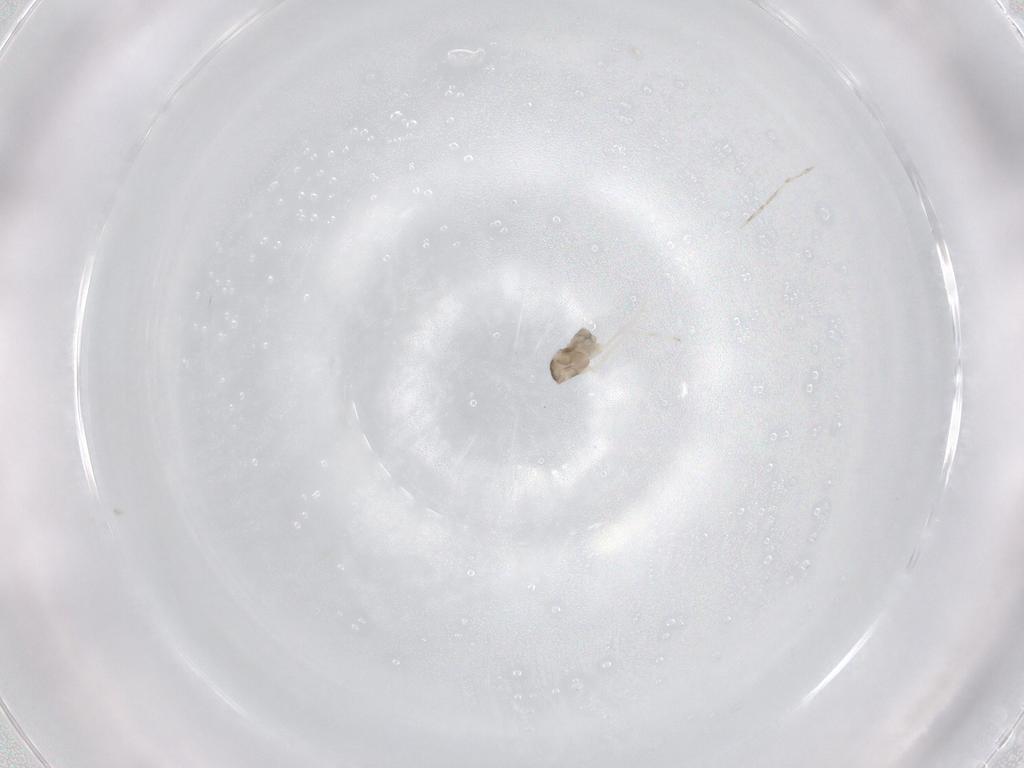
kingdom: Animalia
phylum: Arthropoda
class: Insecta
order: Diptera
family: Cecidomyiidae
